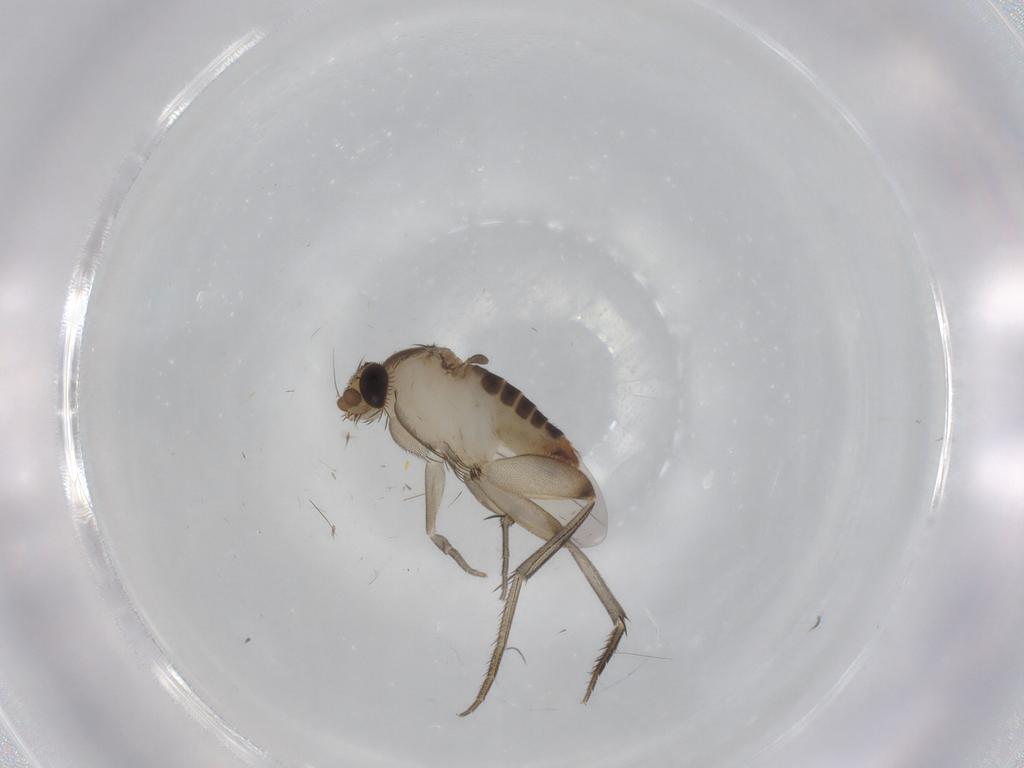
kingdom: Animalia
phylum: Arthropoda
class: Insecta
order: Diptera
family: Phoridae
